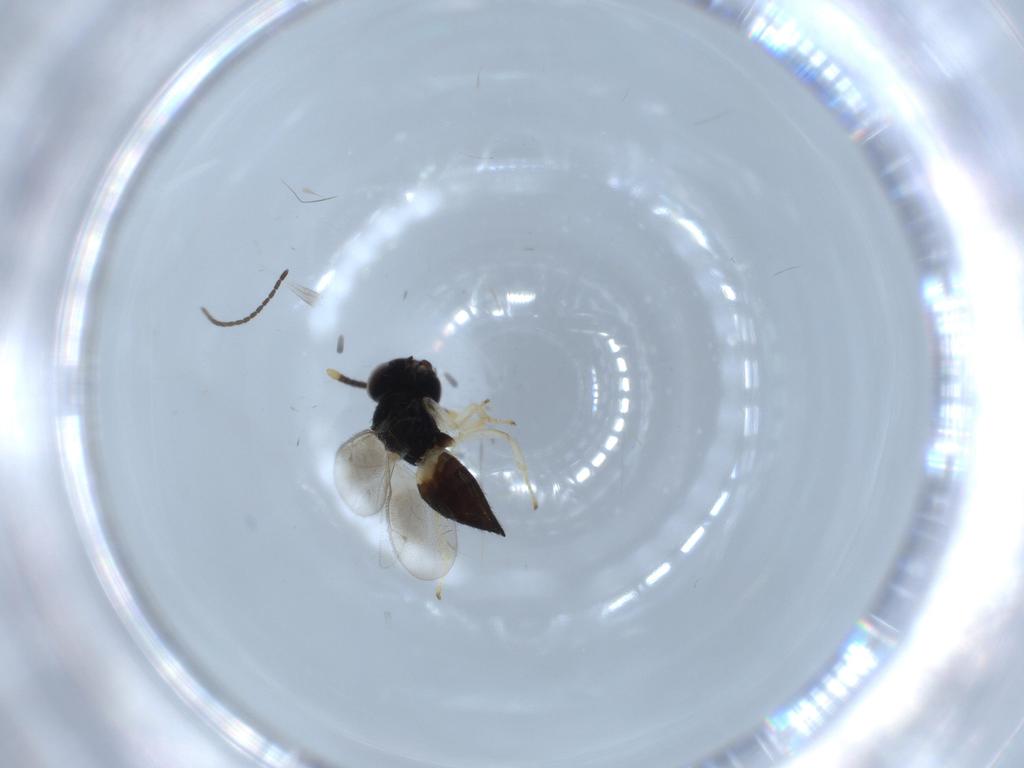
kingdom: Animalia
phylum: Arthropoda
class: Insecta
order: Hymenoptera
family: Pteromalidae
